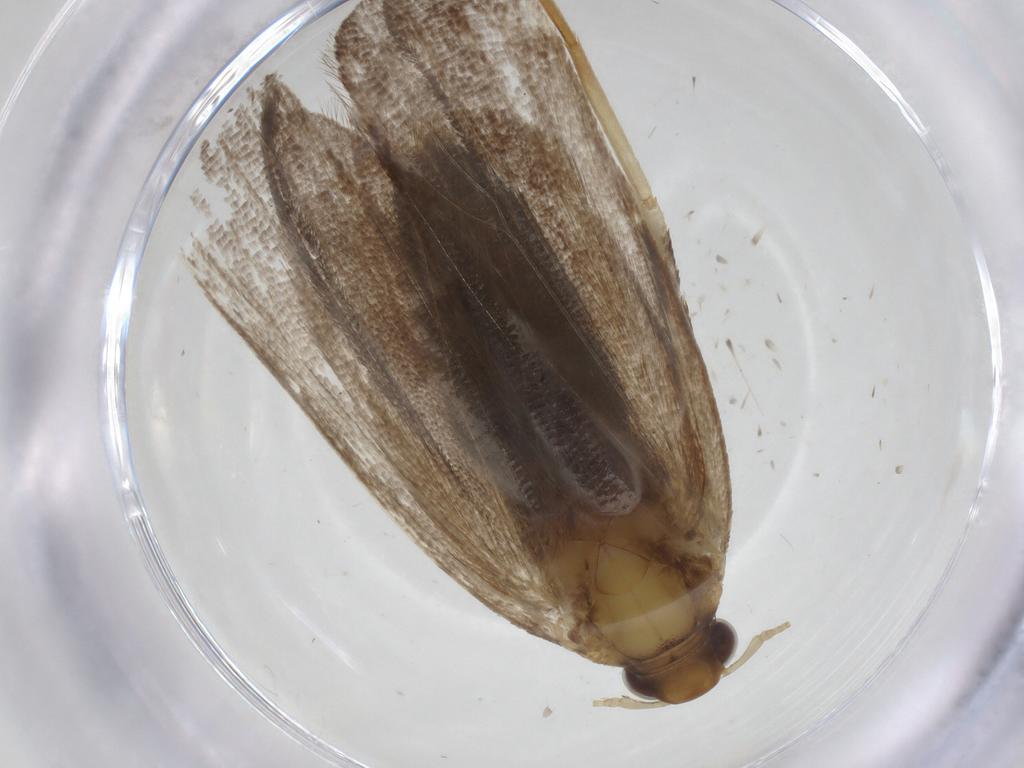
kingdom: Animalia
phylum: Arthropoda
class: Insecta
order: Lepidoptera
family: Lecithoceridae
